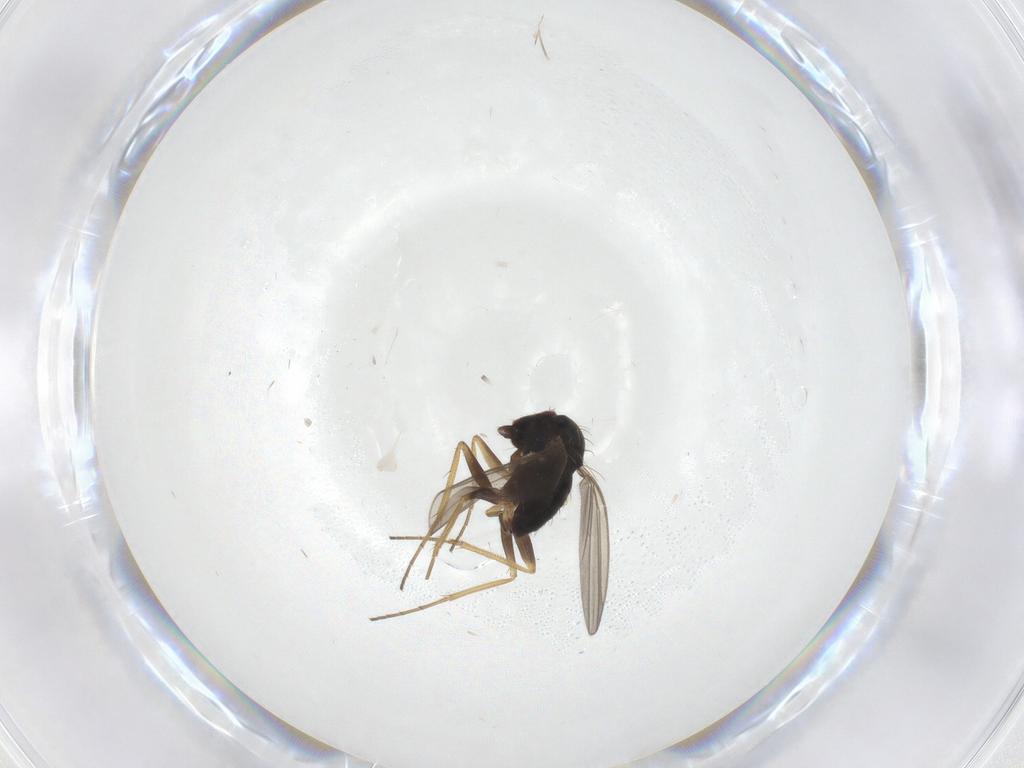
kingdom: Animalia
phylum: Arthropoda
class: Insecta
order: Diptera
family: Dolichopodidae
